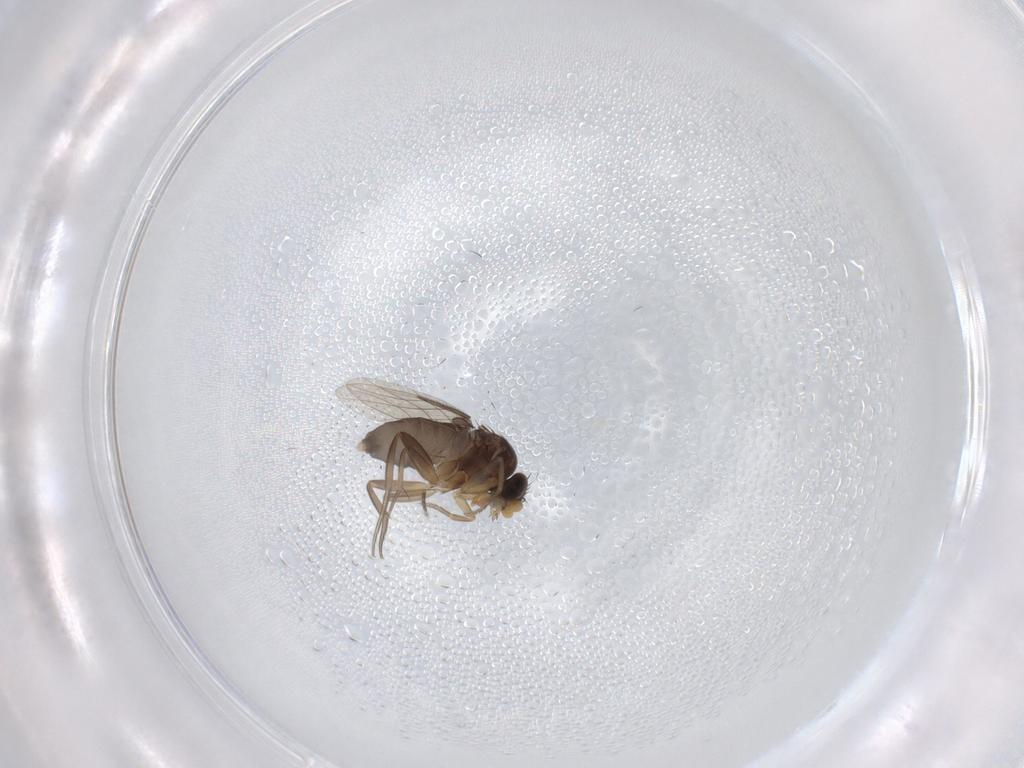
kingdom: Animalia
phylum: Arthropoda
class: Insecta
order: Diptera
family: Phoridae
